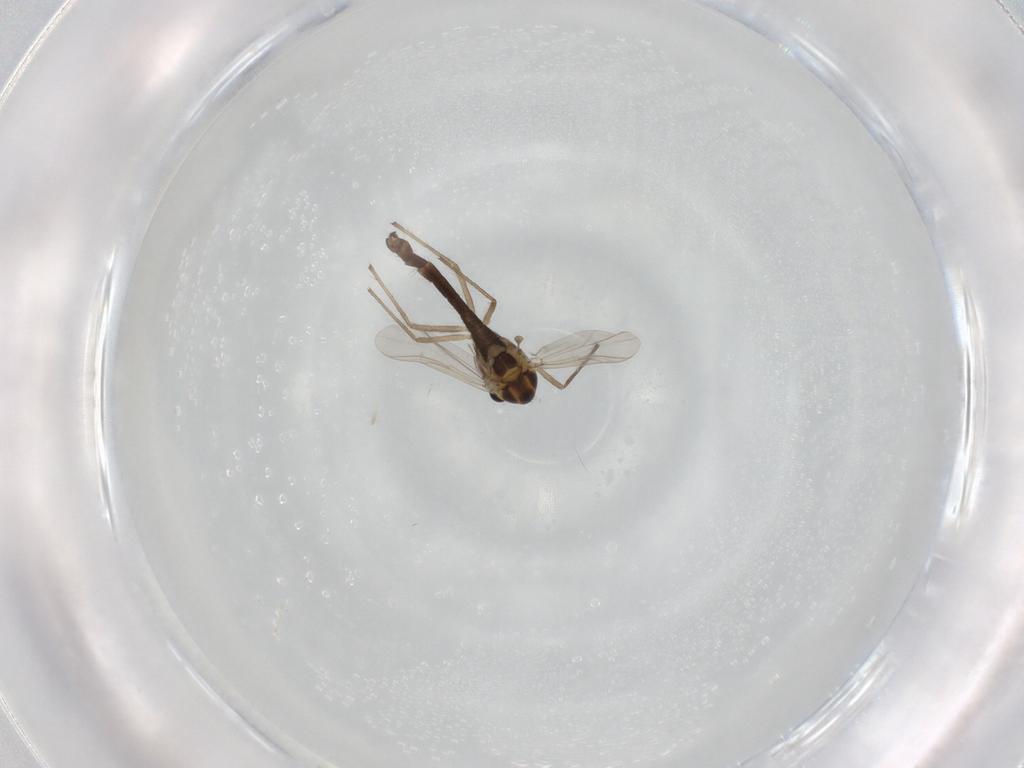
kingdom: Animalia
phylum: Arthropoda
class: Insecta
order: Diptera
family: Chironomidae
